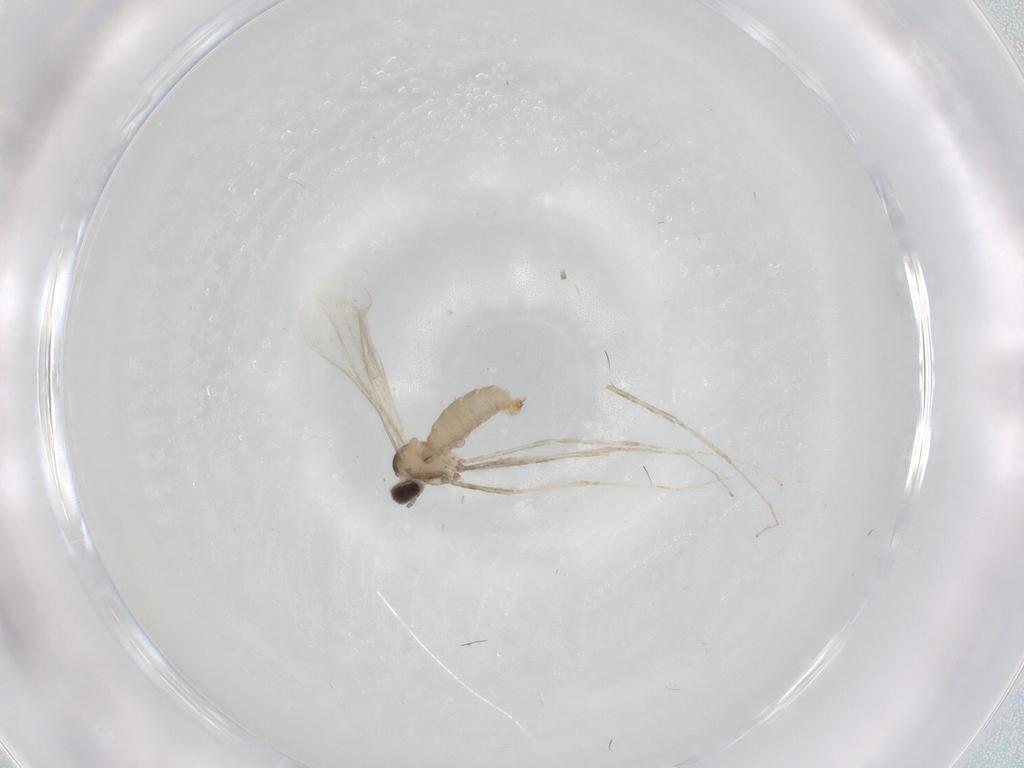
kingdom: Animalia
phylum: Arthropoda
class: Insecta
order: Diptera
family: Cecidomyiidae
